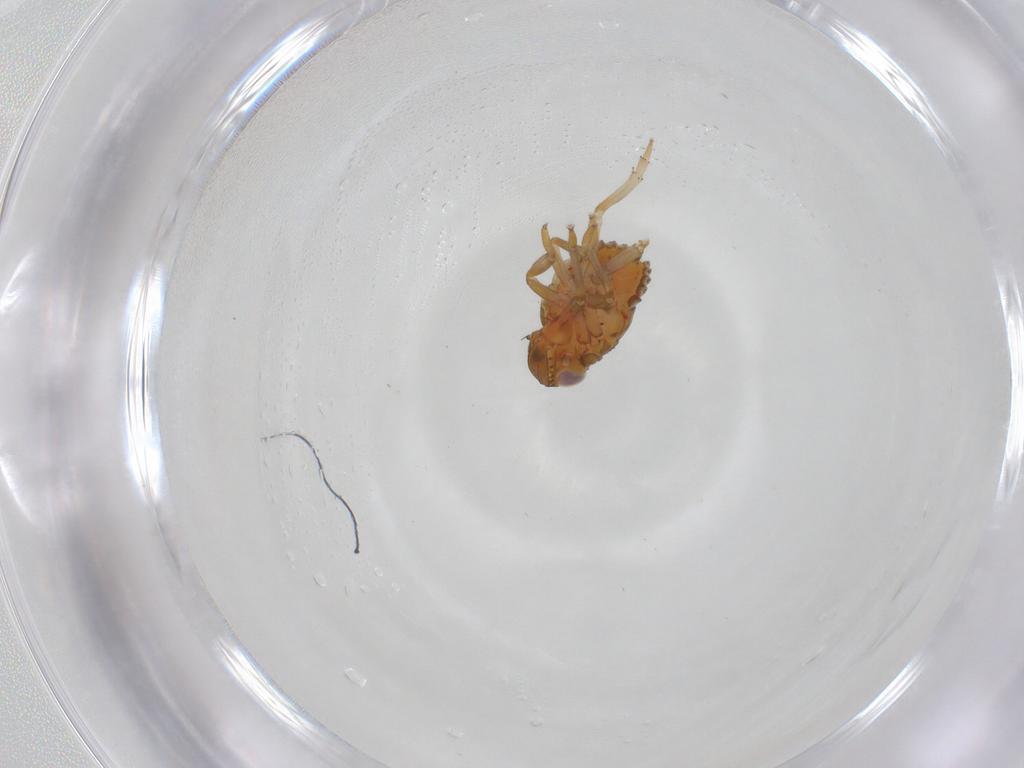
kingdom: Animalia
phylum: Arthropoda
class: Insecta
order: Hemiptera
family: Issidae
